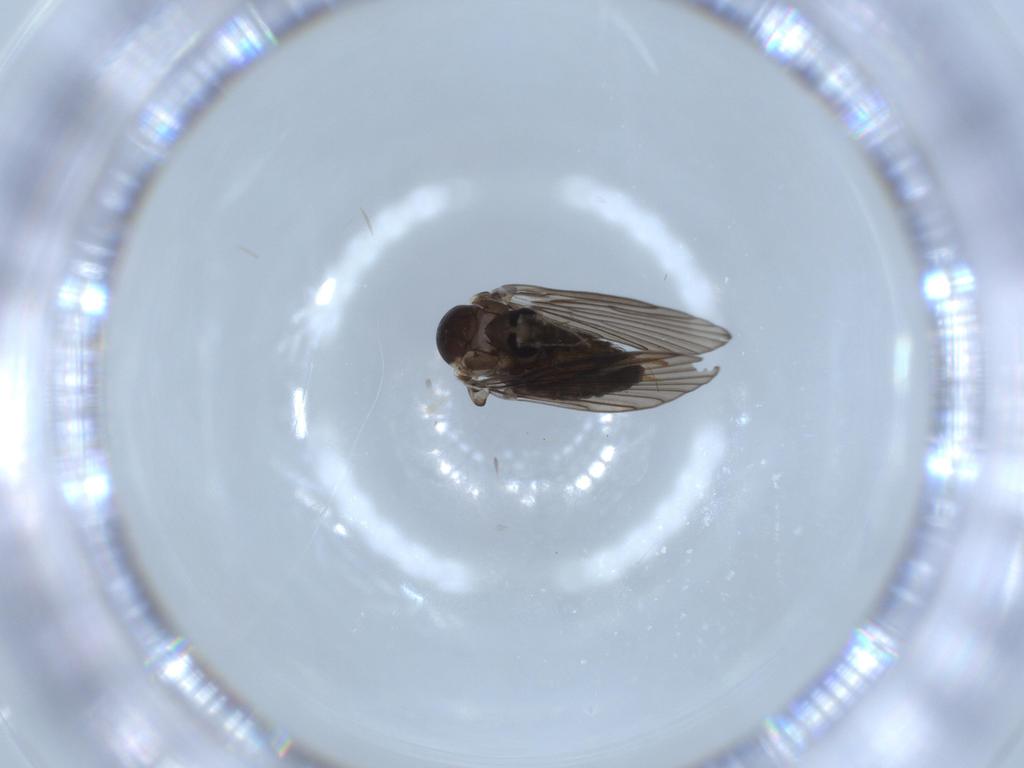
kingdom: Animalia
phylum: Arthropoda
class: Insecta
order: Diptera
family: Psychodidae
